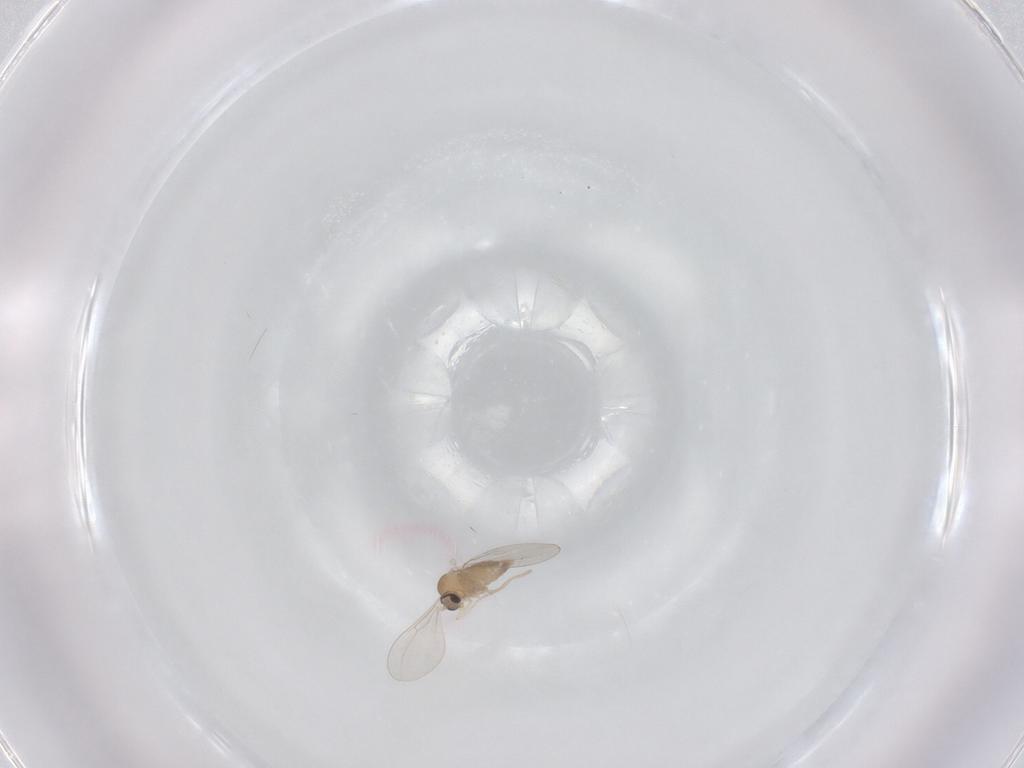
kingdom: Animalia
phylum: Arthropoda
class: Insecta
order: Diptera
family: Cecidomyiidae
